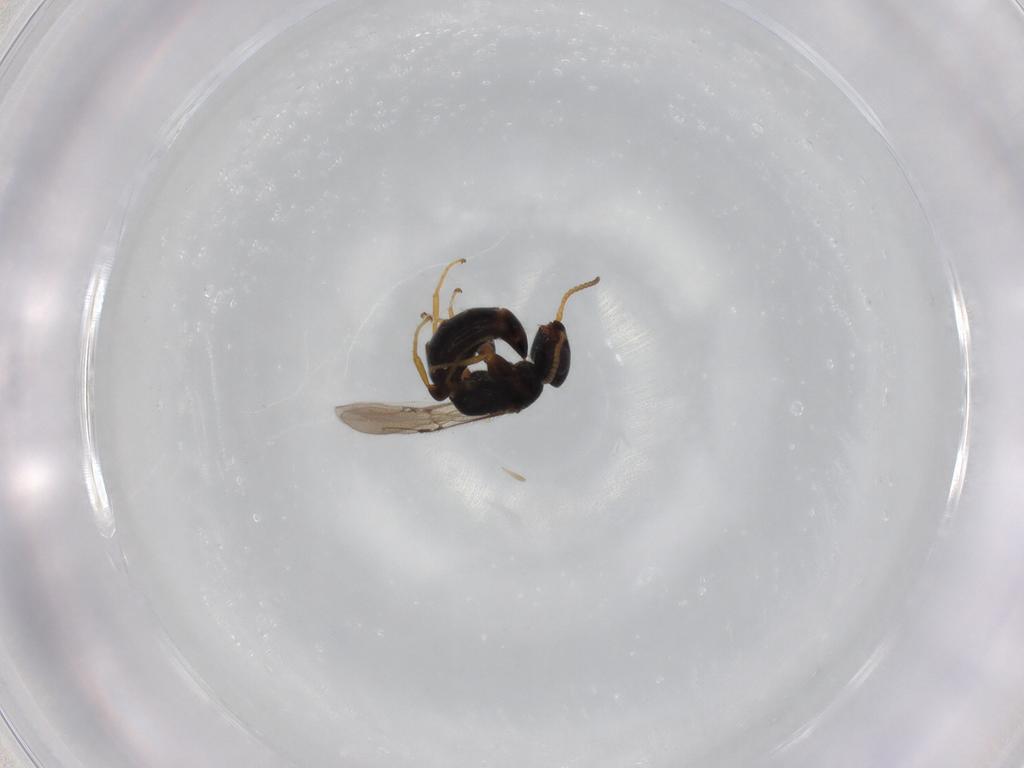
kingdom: Animalia
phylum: Arthropoda
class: Insecta
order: Hymenoptera
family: Bethylidae
